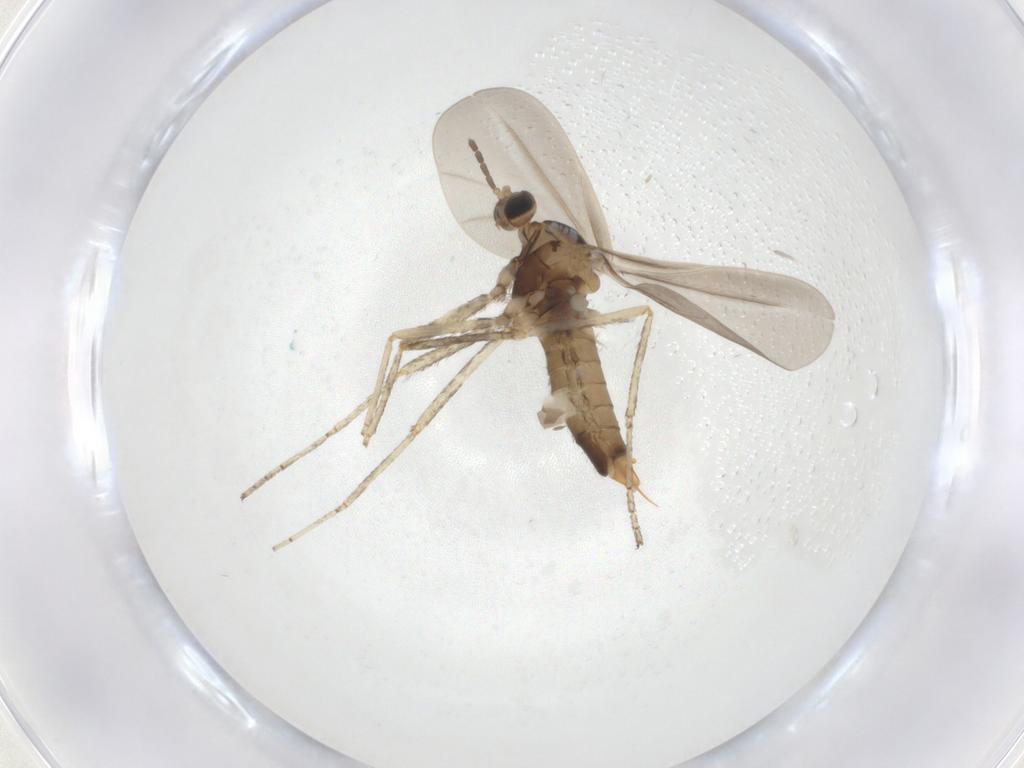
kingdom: Animalia
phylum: Arthropoda
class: Insecta
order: Diptera
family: Cecidomyiidae
